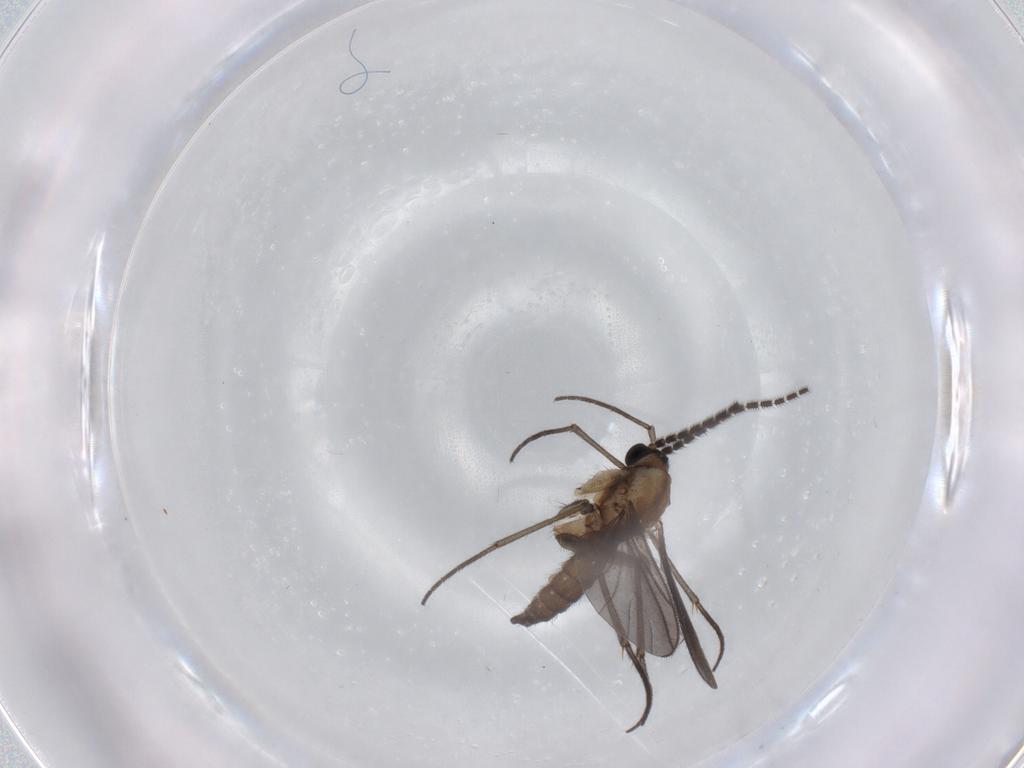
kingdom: Animalia
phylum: Arthropoda
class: Insecta
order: Diptera
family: Sciaridae
